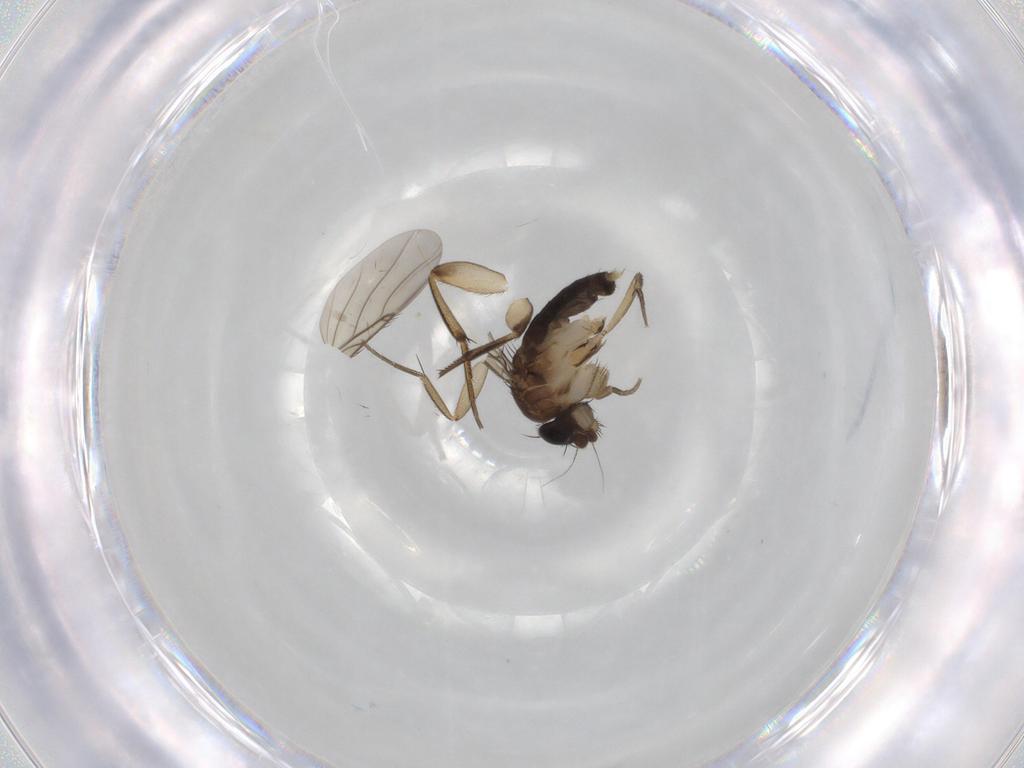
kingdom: Animalia
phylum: Arthropoda
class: Insecta
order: Diptera
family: Phoridae
